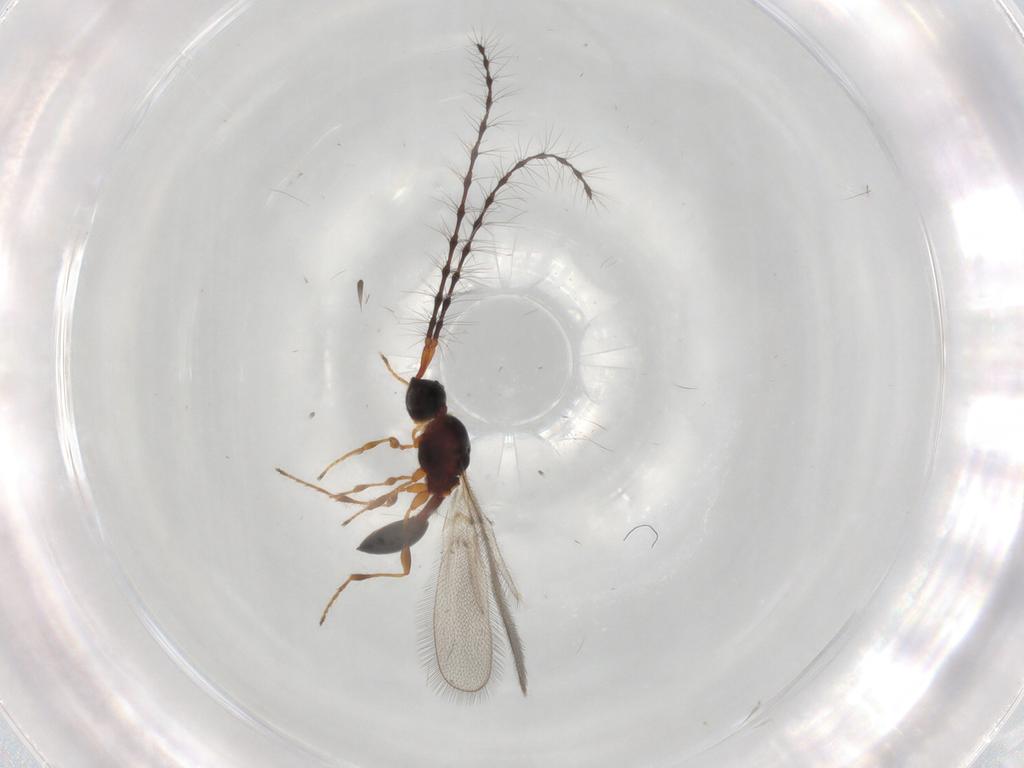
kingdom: Animalia
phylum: Arthropoda
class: Insecta
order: Hymenoptera
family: Diapriidae
